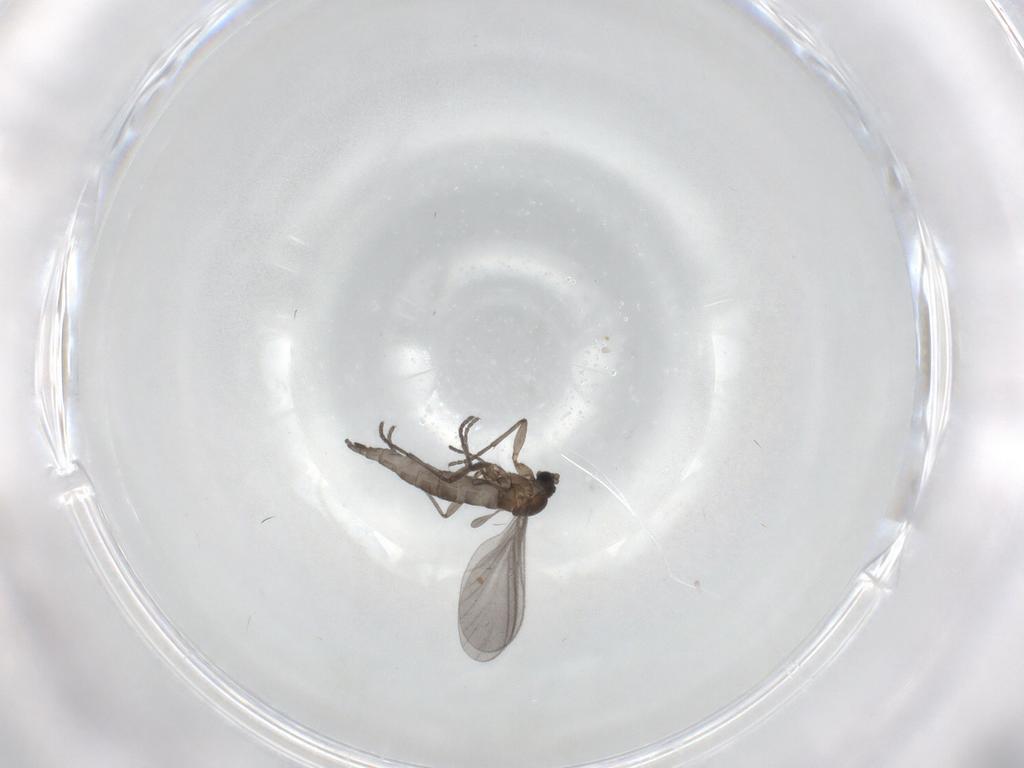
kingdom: Animalia
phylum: Arthropoda
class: Insecta
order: Diptera
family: Sciaridae
